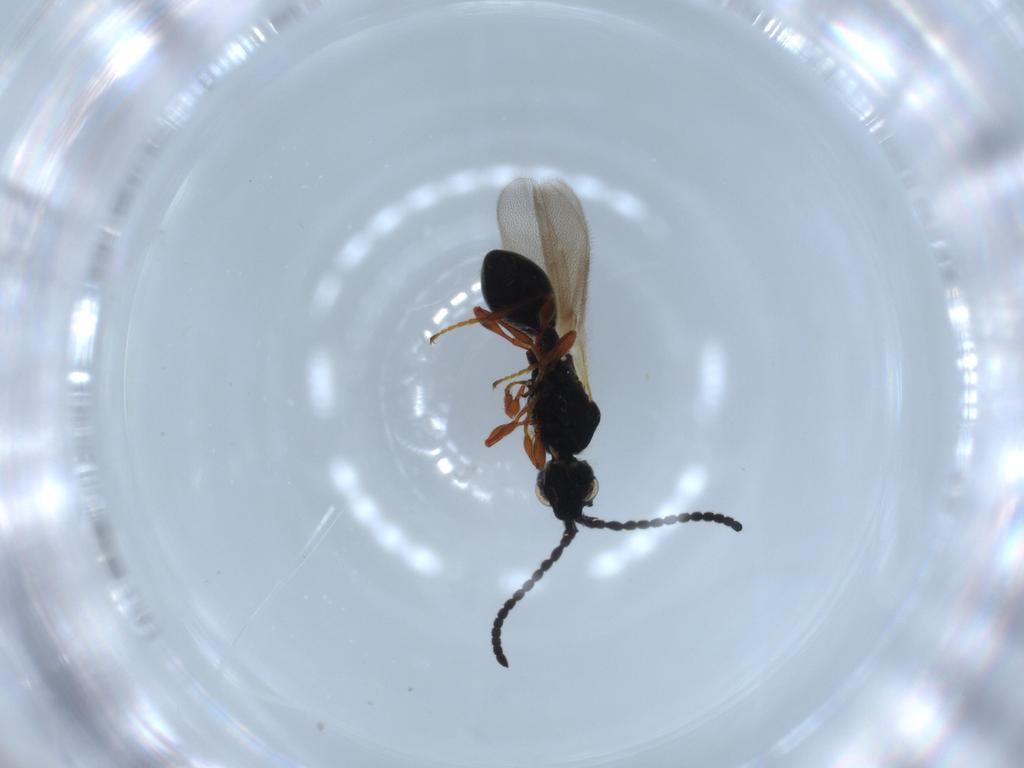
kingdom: Animalia
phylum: Arthropoda
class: Insecta
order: Hymenoptera
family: Diapriidae
